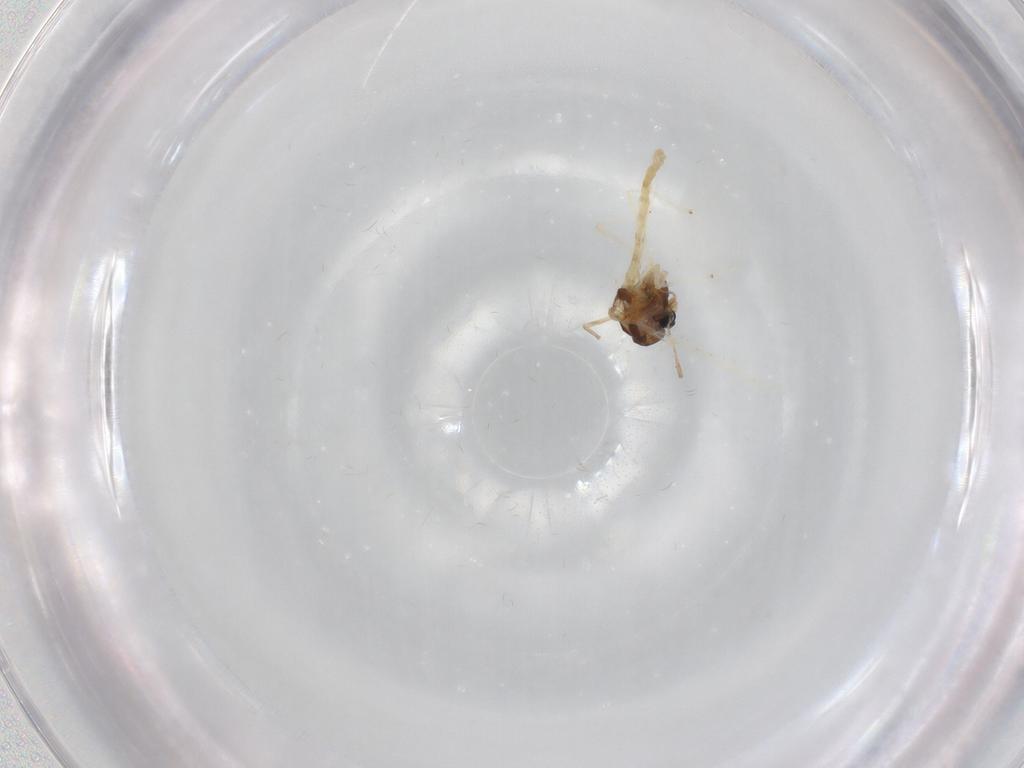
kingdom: Animalia
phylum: Arthropoda
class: Insecta
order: Diptera
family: Chironomidae
